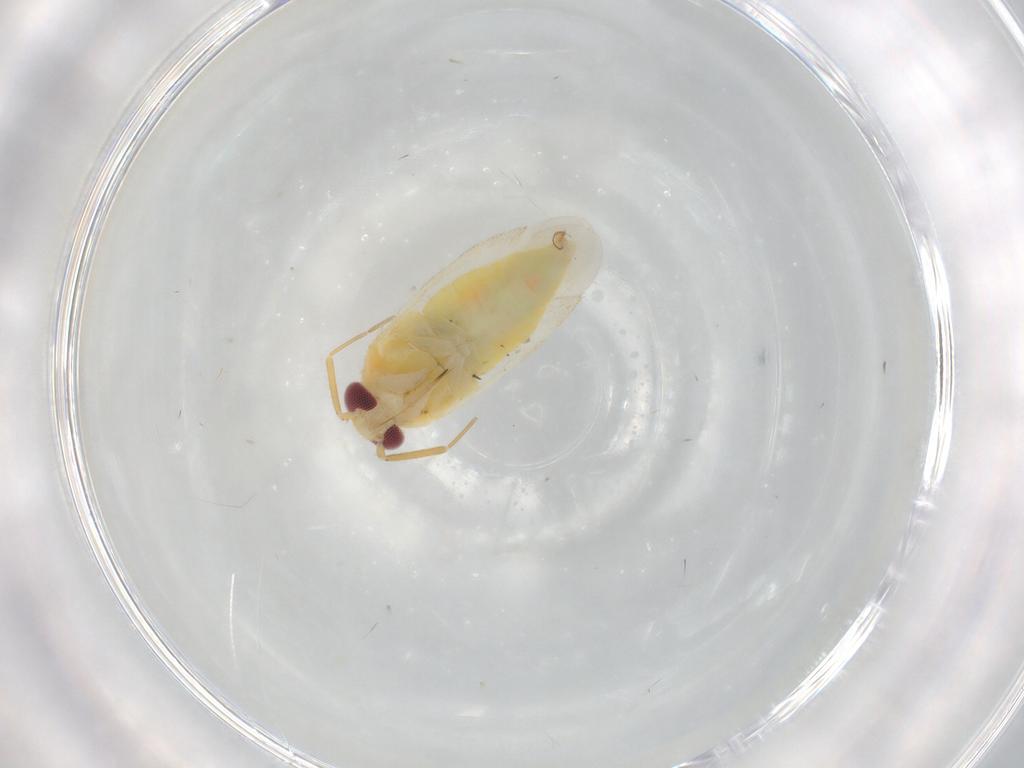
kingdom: Animalia
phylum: Arthropoda
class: Insecta
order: Hemiptera
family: Miridae
